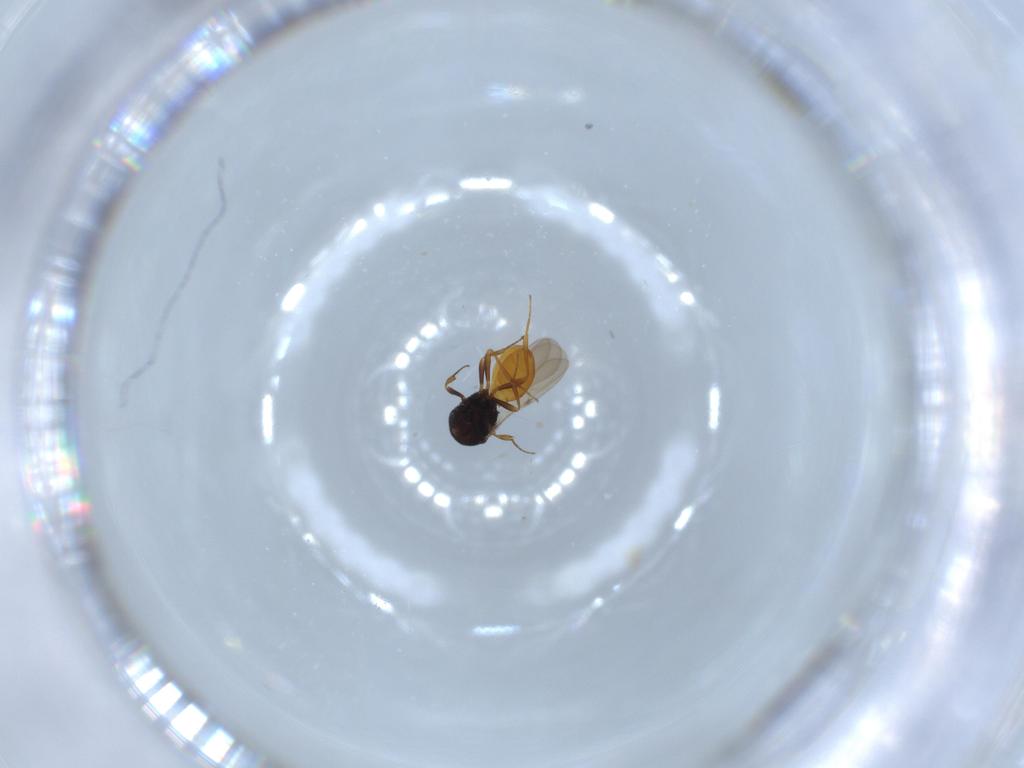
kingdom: Animalia
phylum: Arthropoda
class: Insecta
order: Hymenoptera
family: Scelionidae
